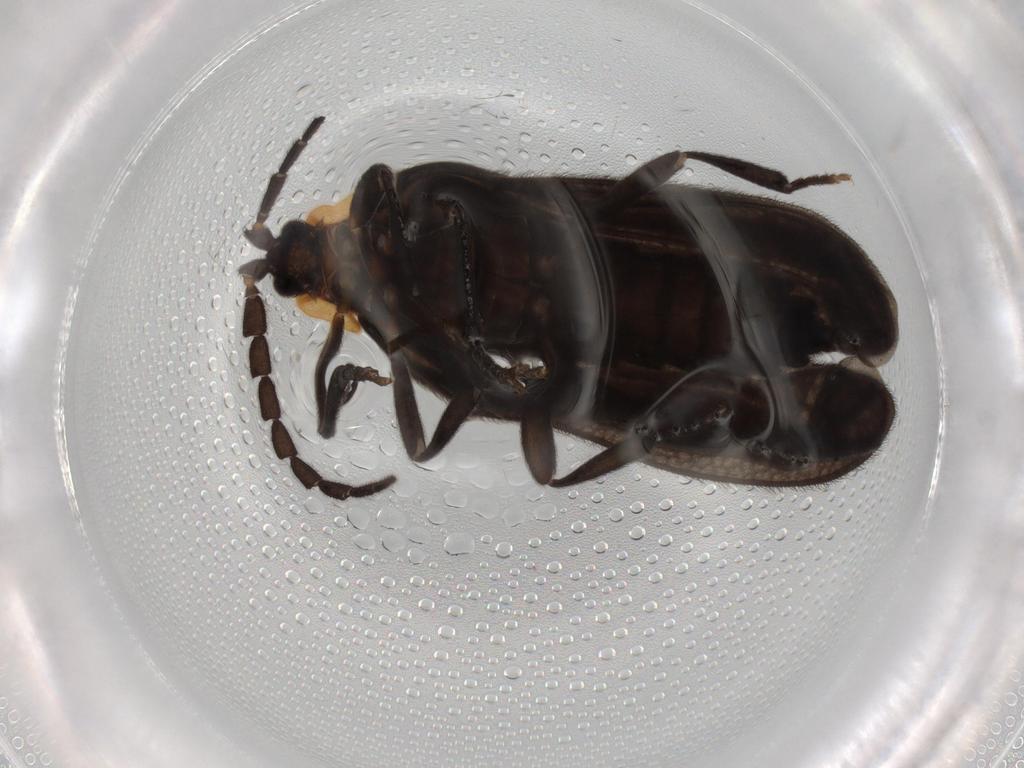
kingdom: Animalia
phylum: Arthropoda
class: Insecta
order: Coleoptera
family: Lycidae
